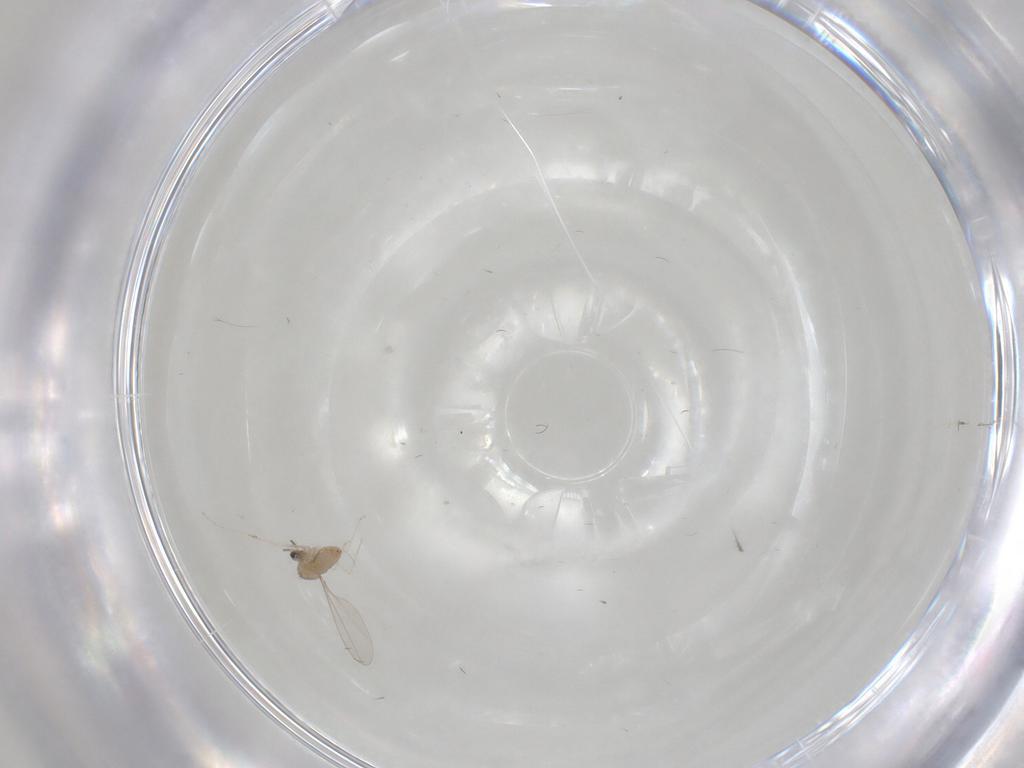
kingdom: Animalia
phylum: Arthropoda
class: Insecta
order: Diptera
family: Cecidomyiidae
